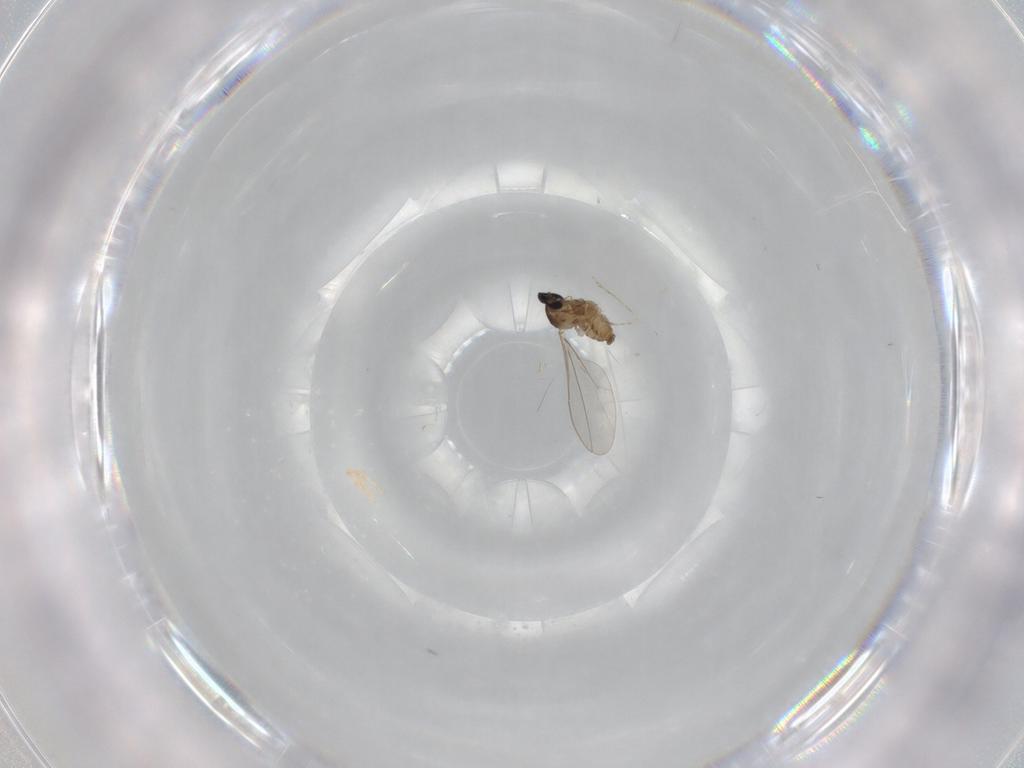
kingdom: Animalia
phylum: Arthropoda
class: Insecta
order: Diptera
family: Cecidomyiidae
